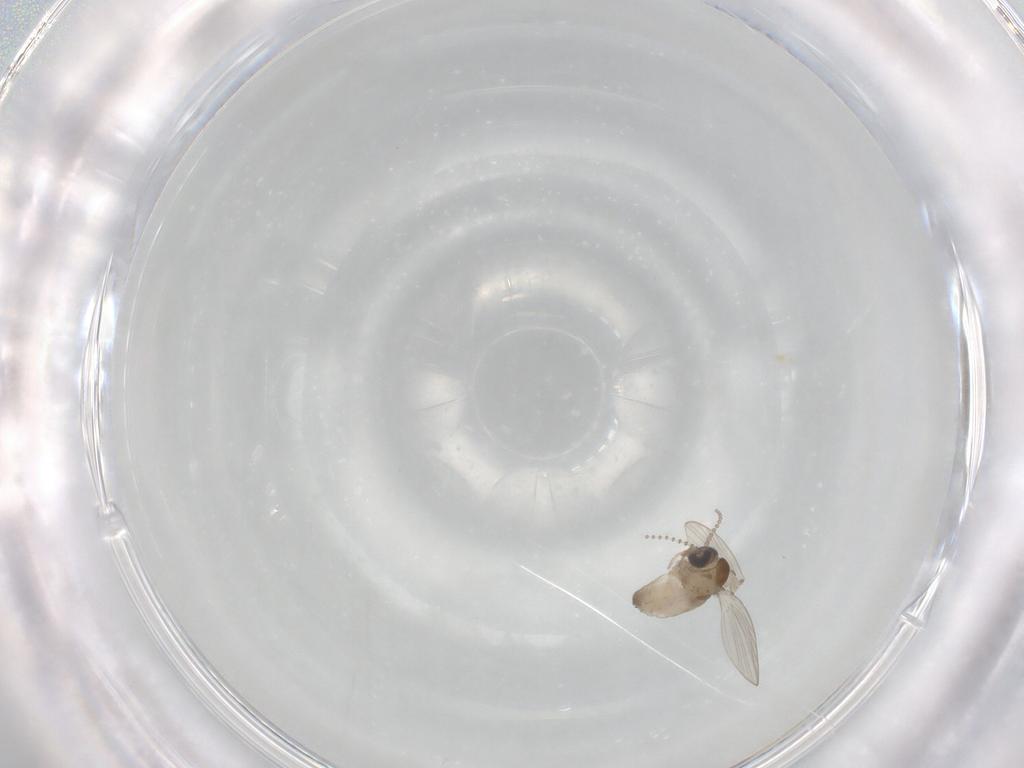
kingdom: Animalia
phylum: Arthropoda
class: Insecta
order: Diptera
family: Cecidomyiidae
